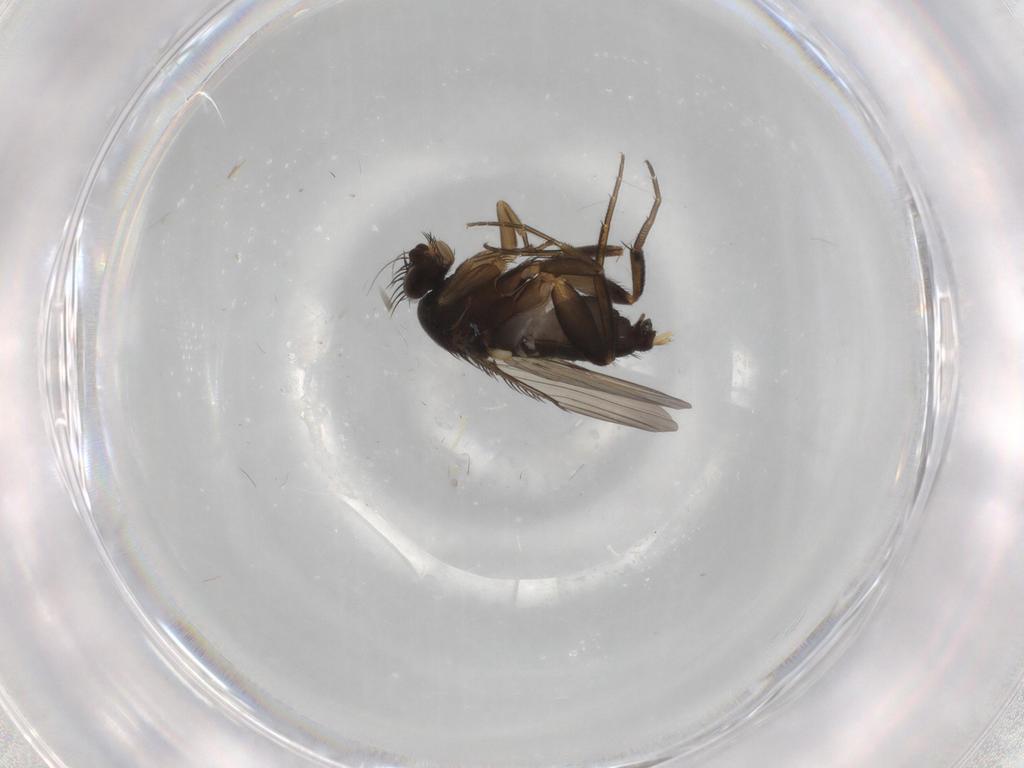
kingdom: Animalia
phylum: Arthropoda
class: Insecta
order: Diptera
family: Phoridae
